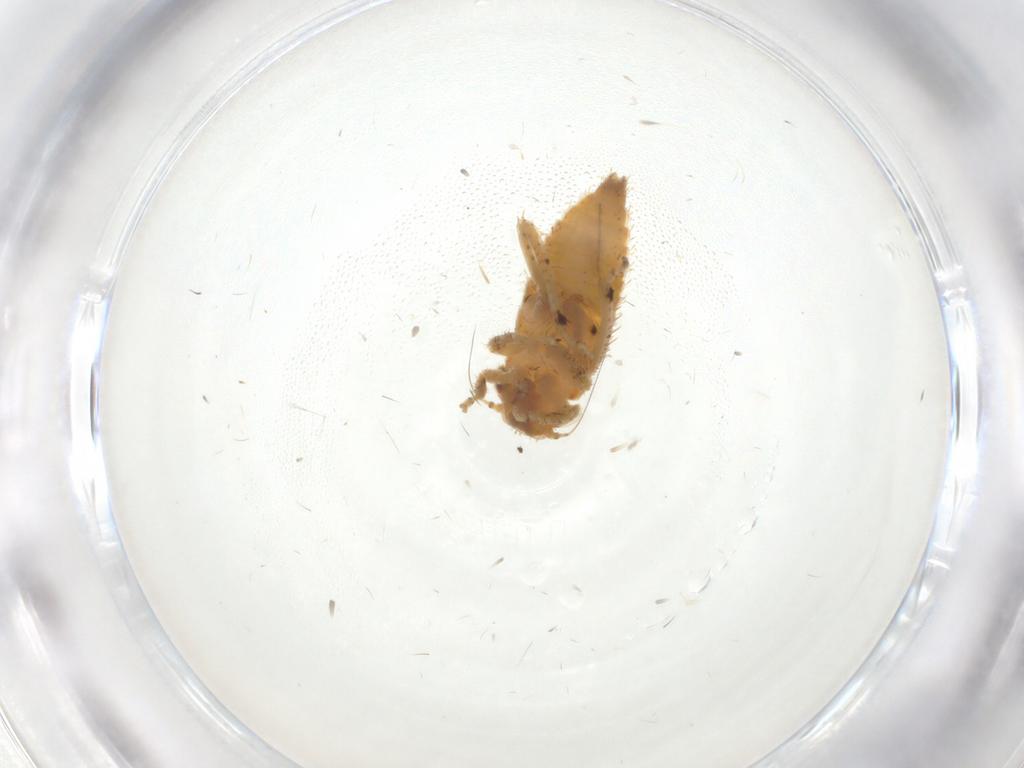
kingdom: Animalia
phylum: Arthropoda
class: Insecta
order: Hemiptera
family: Cicadellidae
